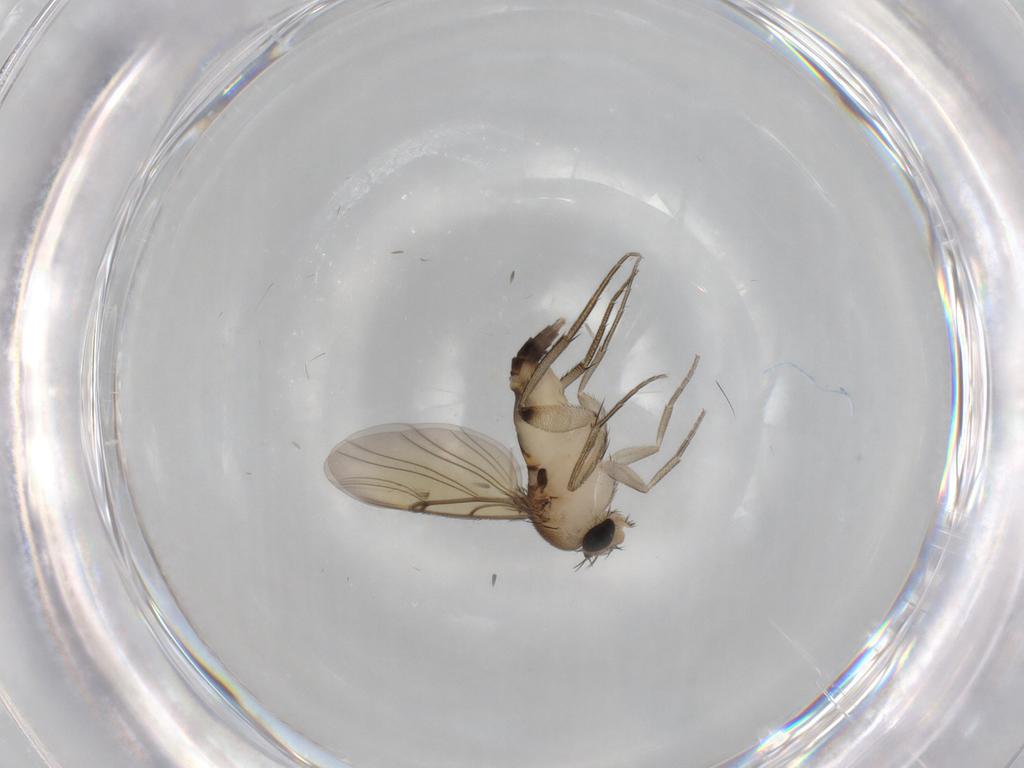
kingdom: Animalia
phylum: Arthropoda
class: Insecta
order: Diptera
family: Phoridae
